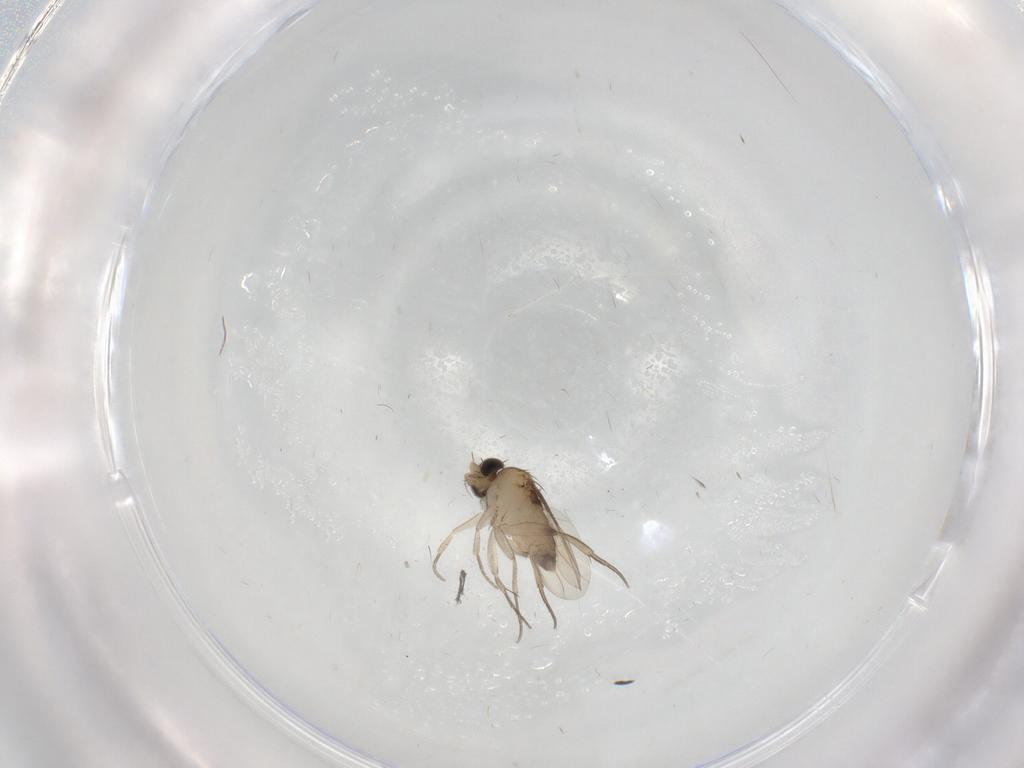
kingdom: Animalia
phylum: Arthropoda
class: Insecta
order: Diptera
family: Phoridae
